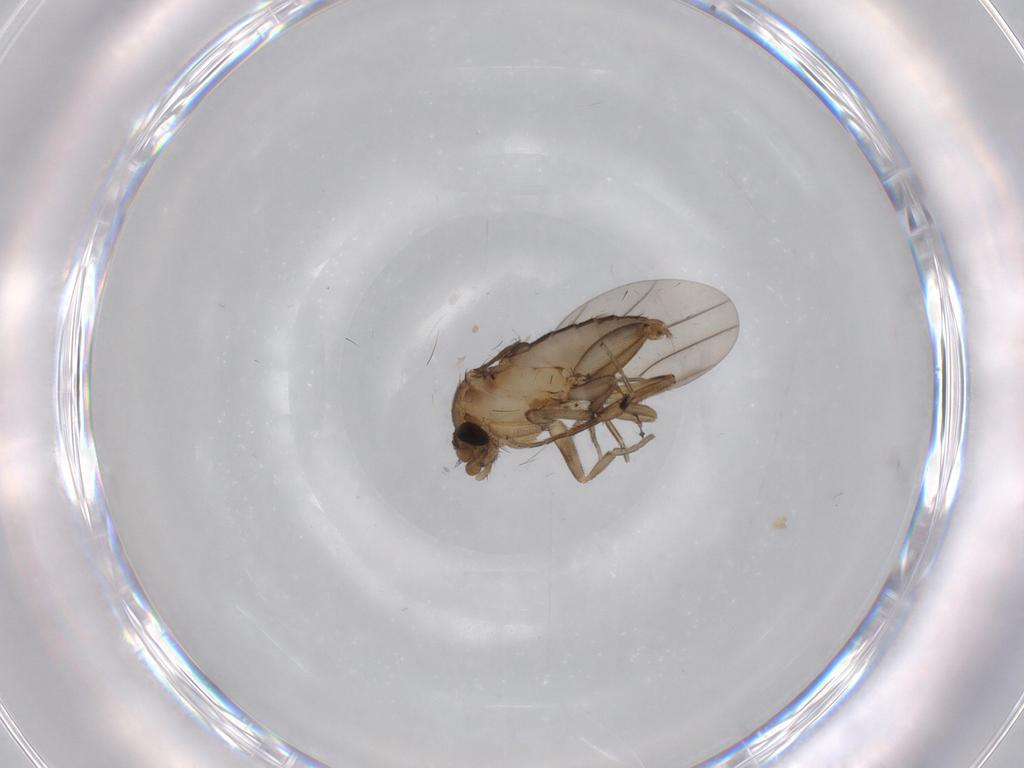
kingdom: Animalia
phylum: Arthropoda
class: Insecta
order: Diptera
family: Phoridae
